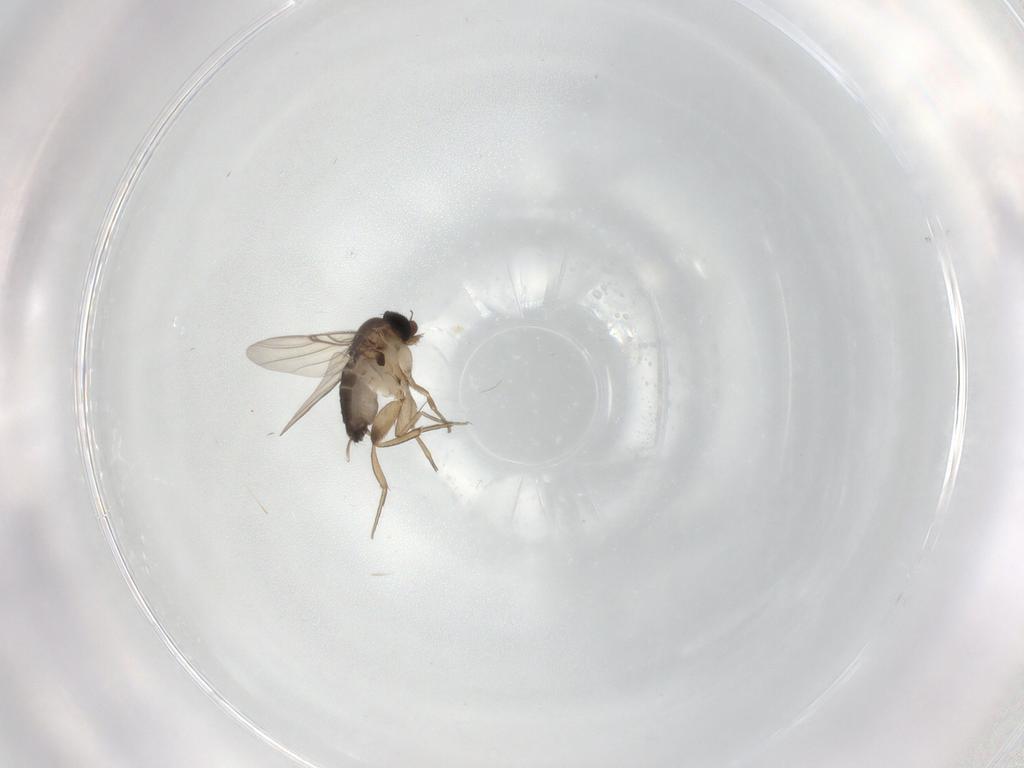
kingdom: Animalia
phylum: Arthropoda
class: Insecta
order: Diptera
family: Phoridae
